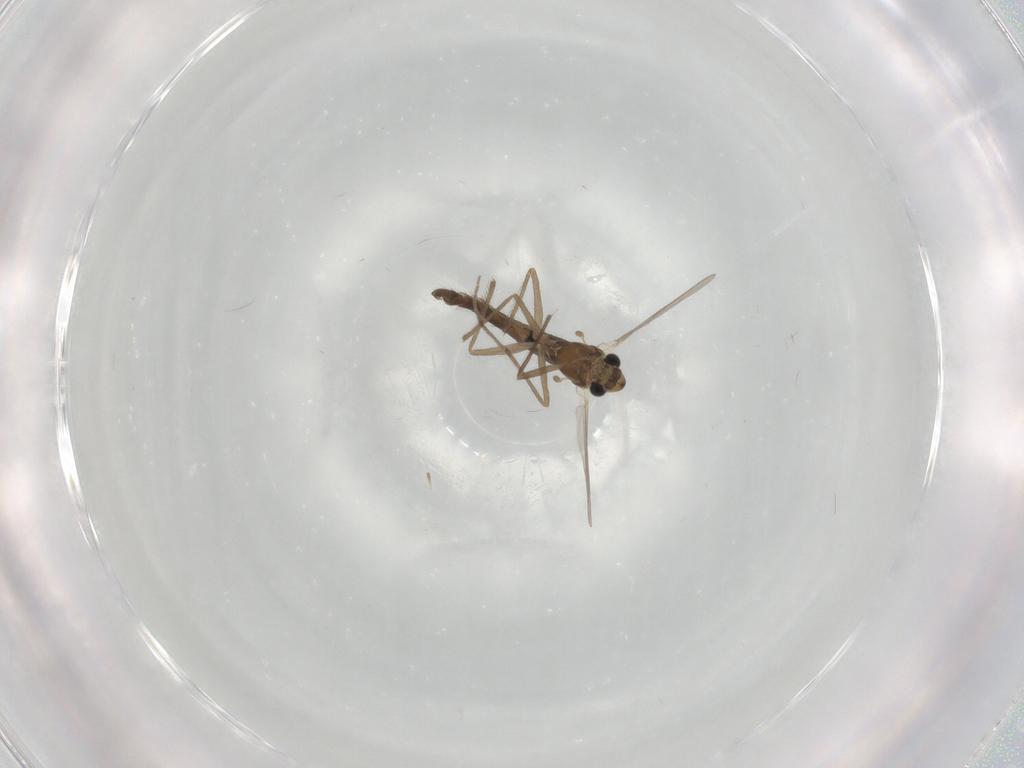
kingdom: Animalia
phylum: Arthropoda
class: Insecta
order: Diptera
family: Chironomidae
